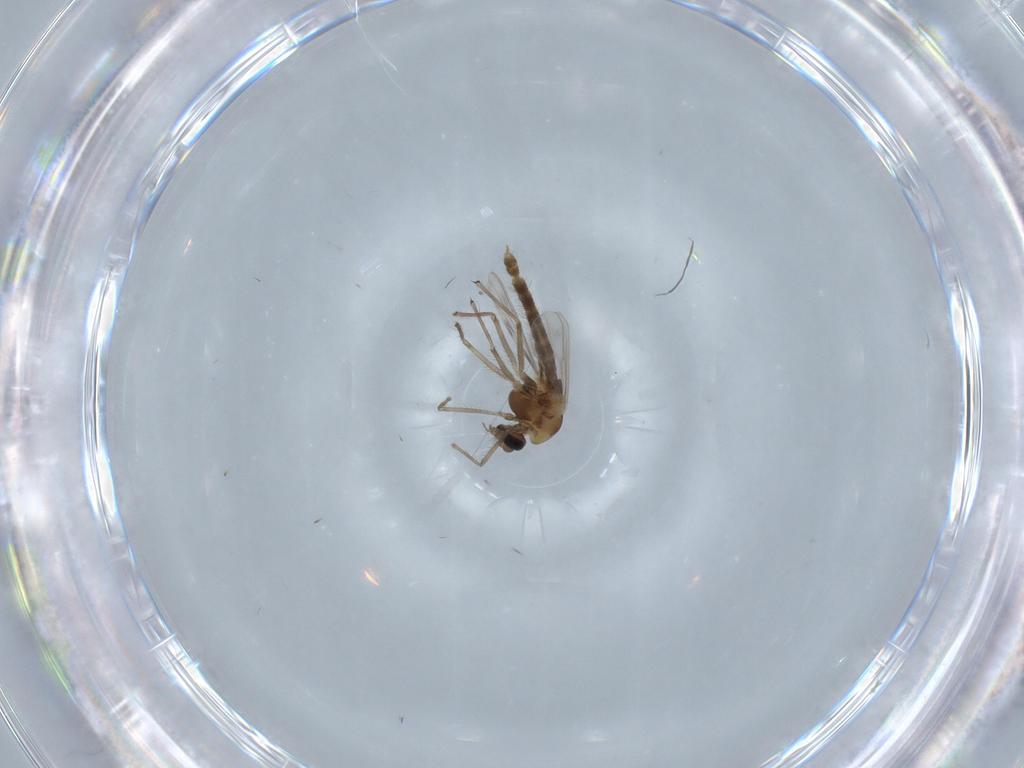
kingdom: Animalia
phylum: Arthropoda
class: Insecta
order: Diptera
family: Chironomidae
